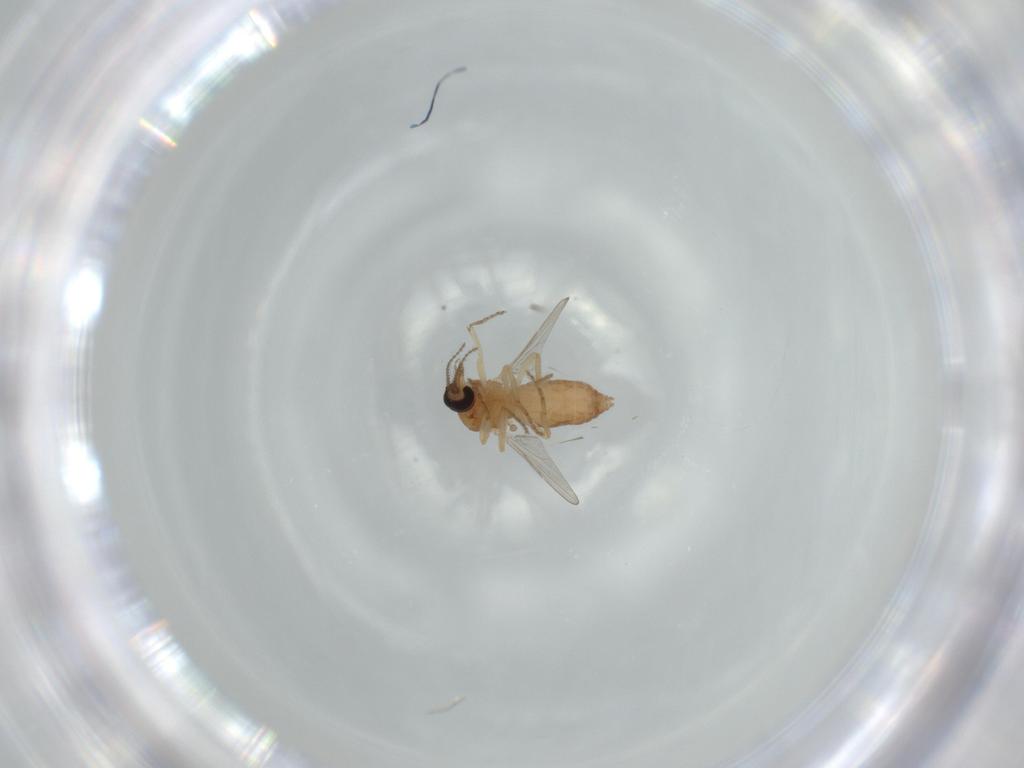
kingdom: Animalia
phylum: Arthropoda
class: Insecta
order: Diptera
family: Ceratopogonidae
